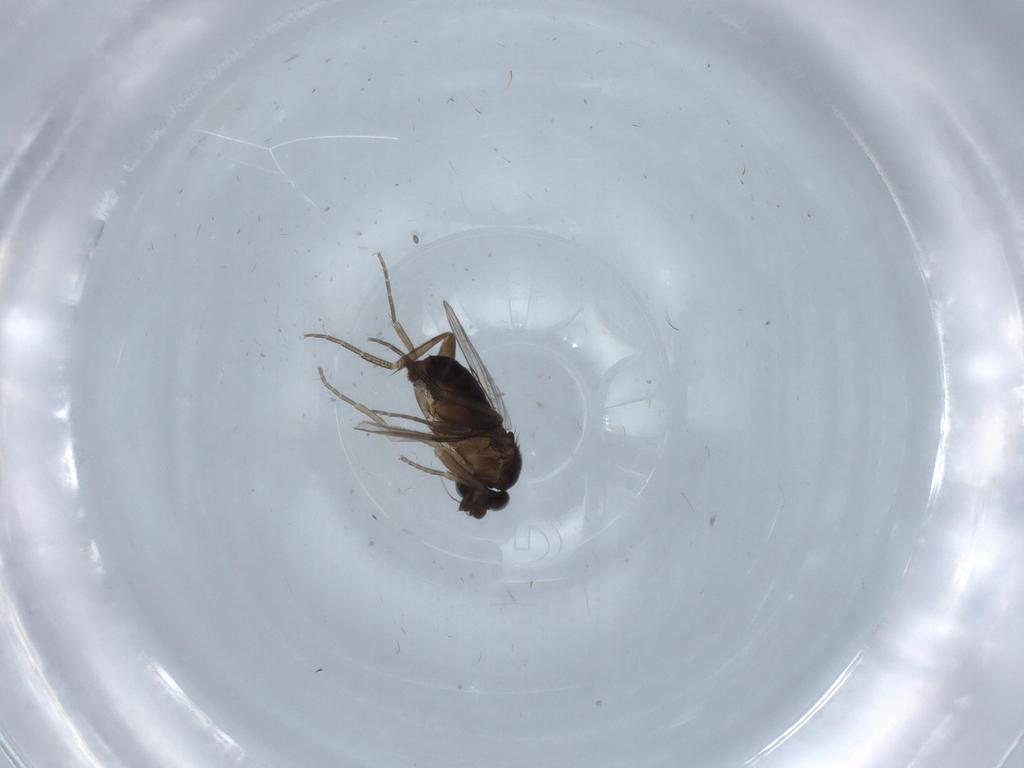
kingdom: Animalia
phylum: Arthropoda
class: Insecta
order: Diptera
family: Phoridae
